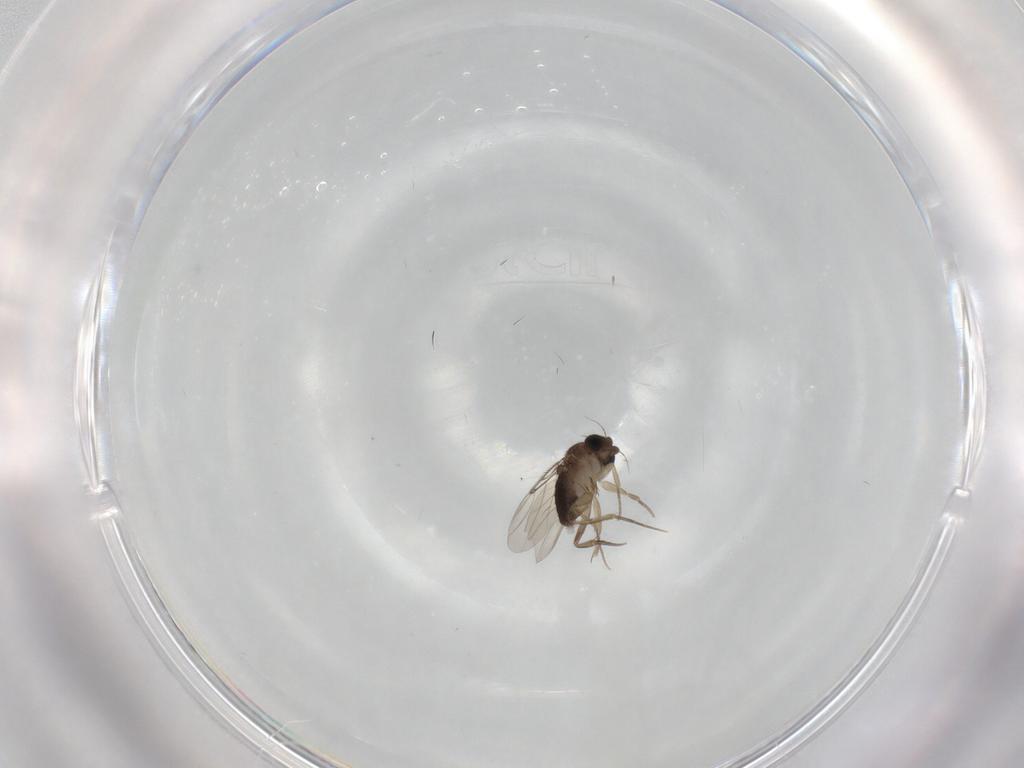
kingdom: Animalia
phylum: Arthropoda
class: Insecta
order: Diptera
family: Phoridae
